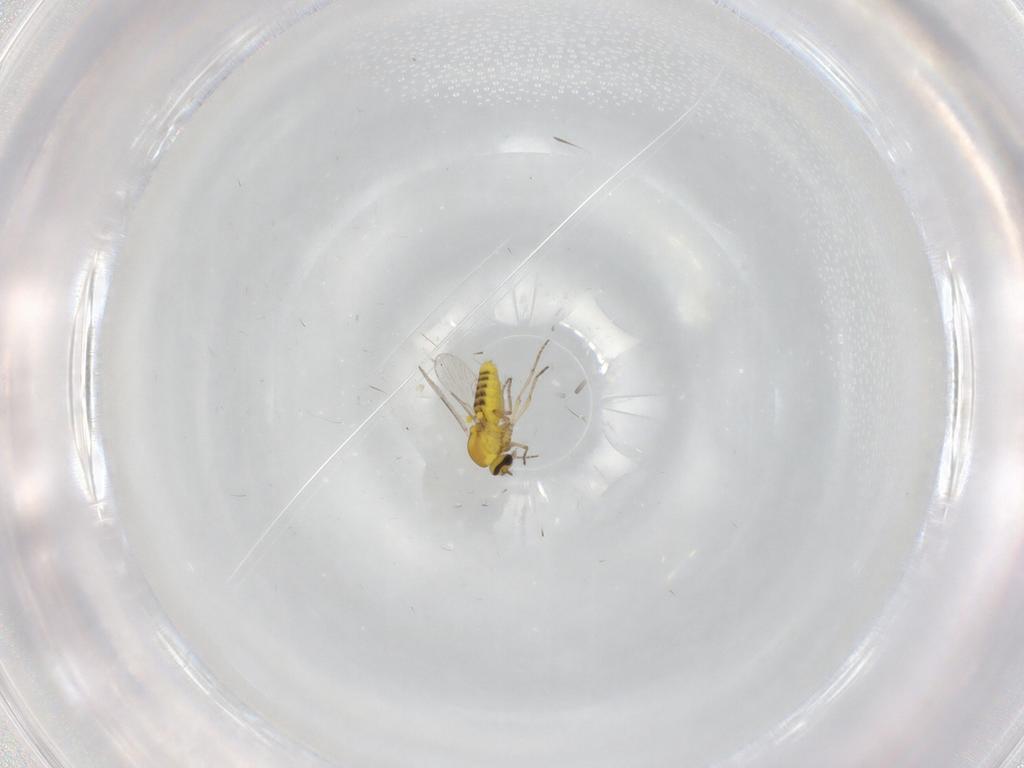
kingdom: Animalia
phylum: Arthropoda
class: Insecta
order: Diptera
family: Ceratopogonidae
